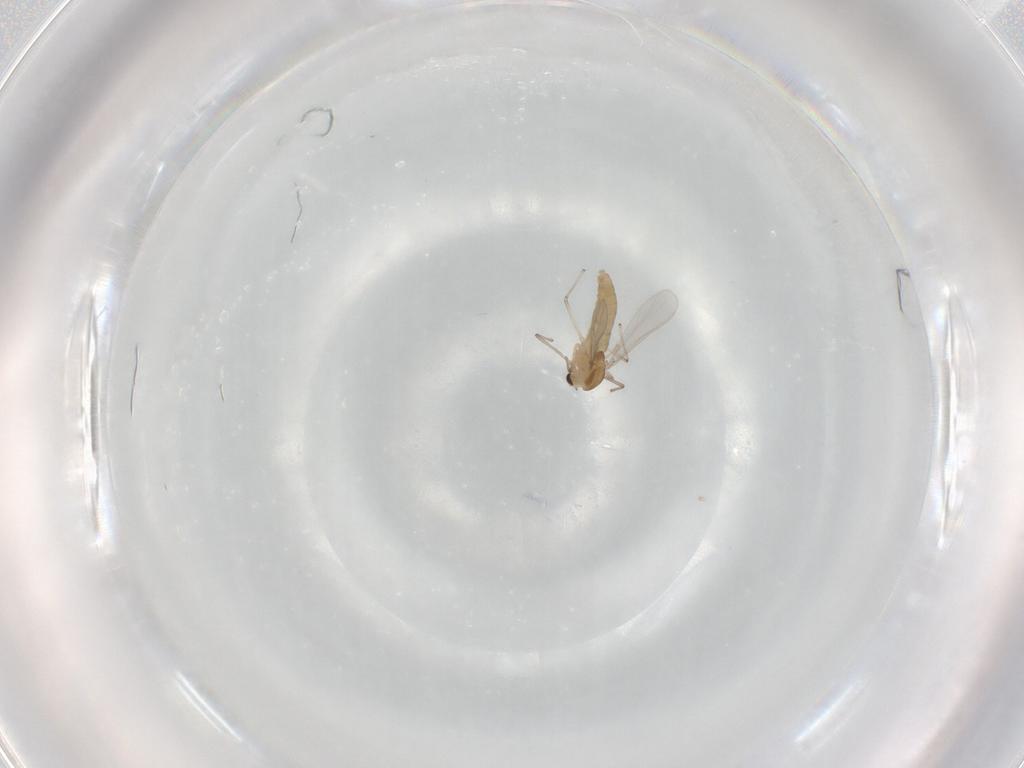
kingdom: Animalia
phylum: Arthropoda
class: Insecta
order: Diptera
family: Chironomidae
